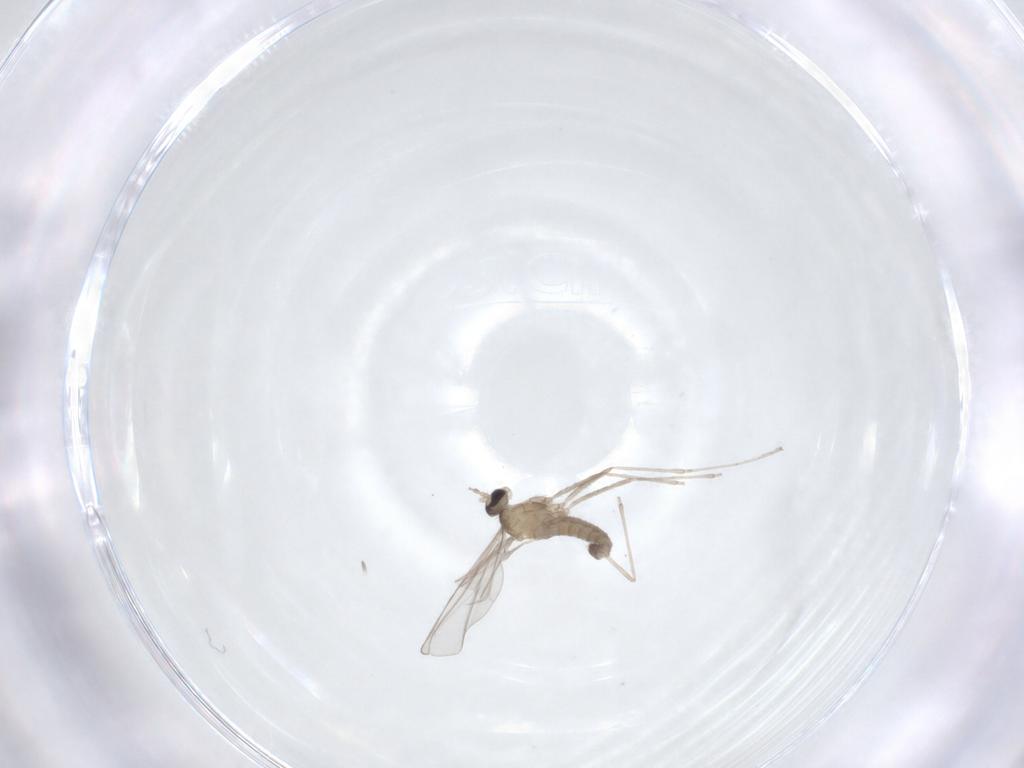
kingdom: Animalia
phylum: Arthropoda
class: Insecta
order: Diptera
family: Cecidomyiidae
